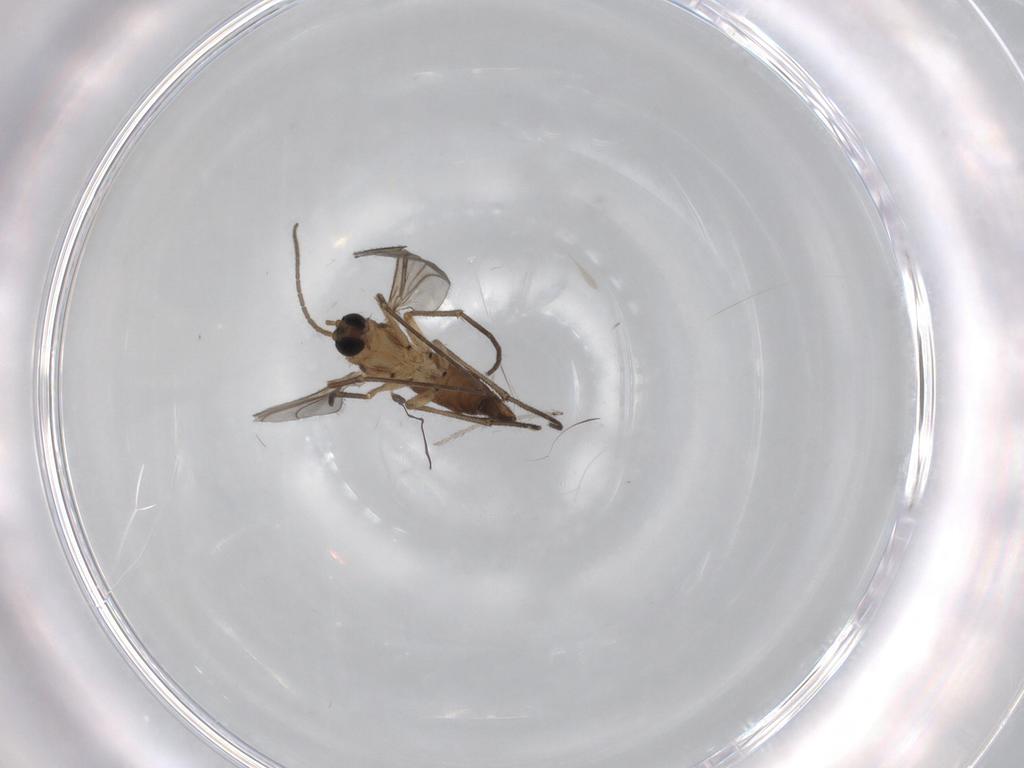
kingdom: Animalia
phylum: Arthropoda
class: Insecta
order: Diptera
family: Sciaridae
